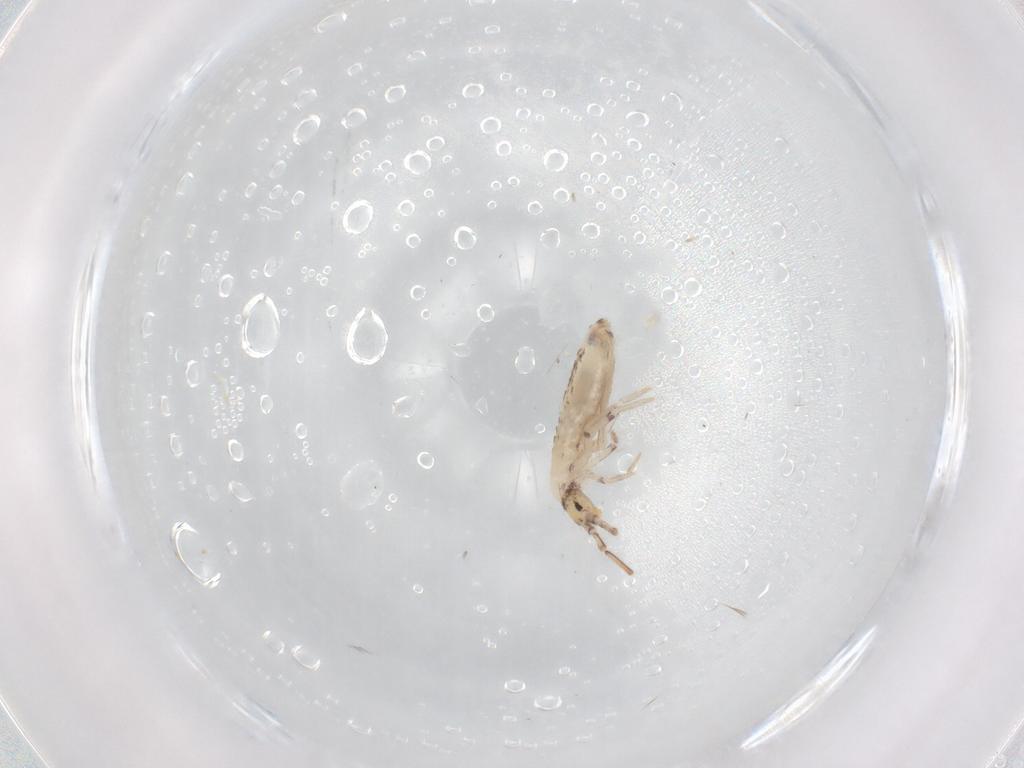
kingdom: Animalia
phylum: Arthropoda
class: Collembola
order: Entomobryomorpha
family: Entomobryidae
